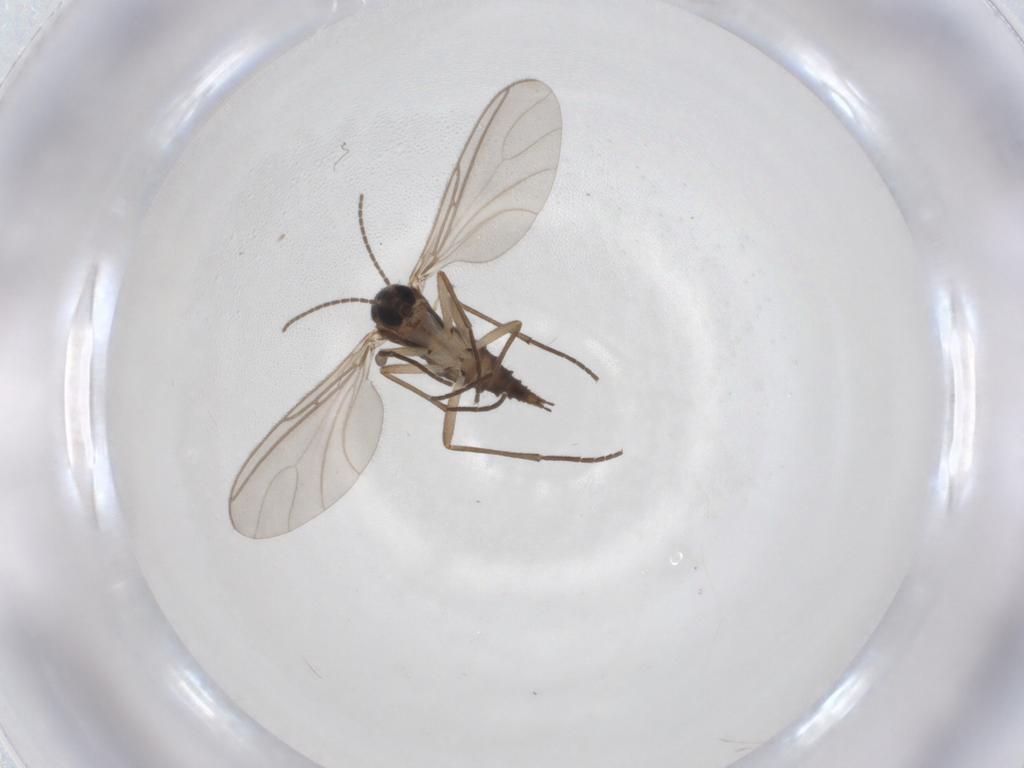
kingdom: Animalia
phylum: Arthropoda
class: Insecta
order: Diptera
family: Sciaridae
